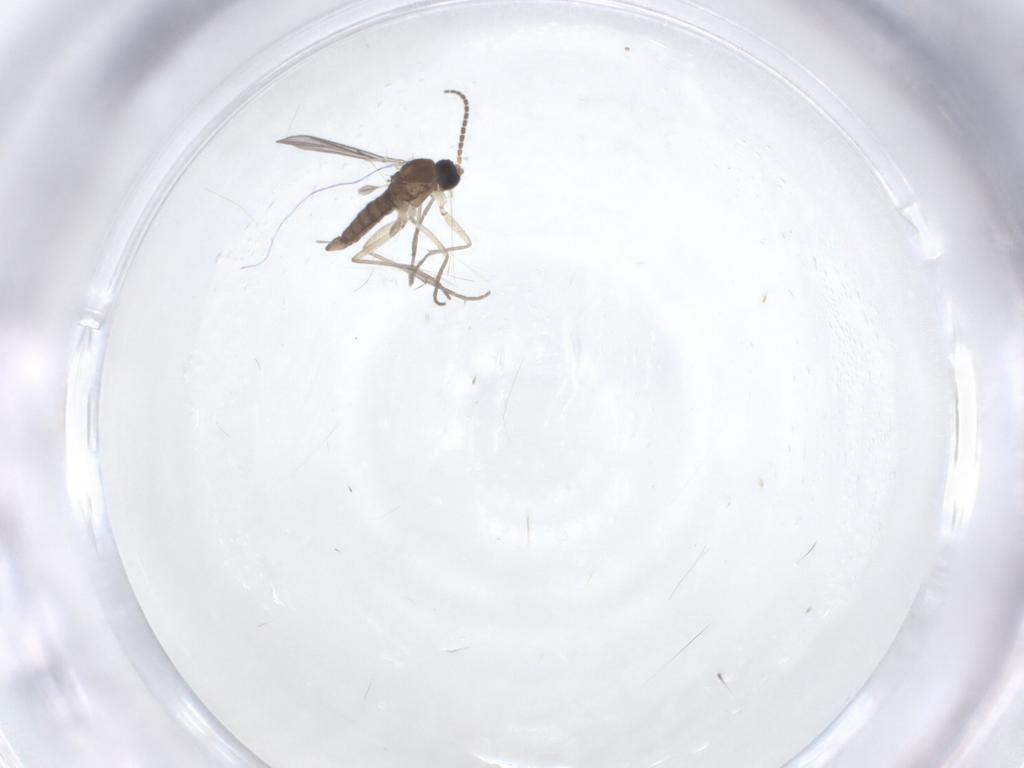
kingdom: Animalia
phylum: Arthropoda
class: Insecta
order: Diptera
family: Sciaridae
